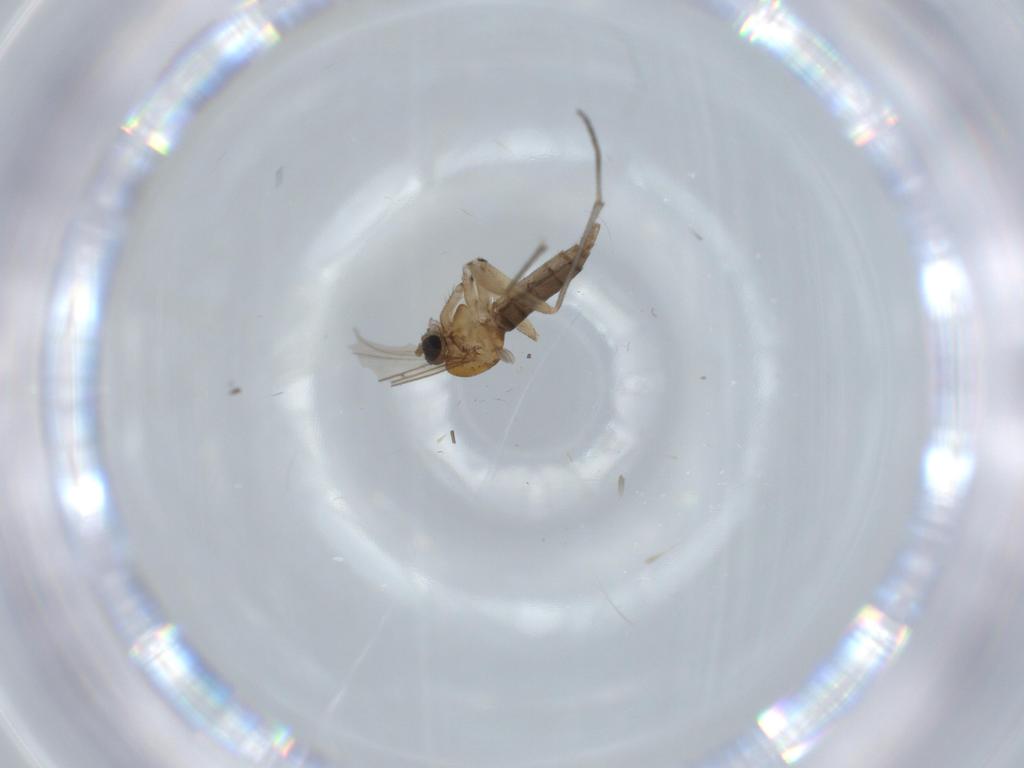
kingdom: Animalia
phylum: Arthropoda
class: Insecta
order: Diptera
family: Sciaridae
